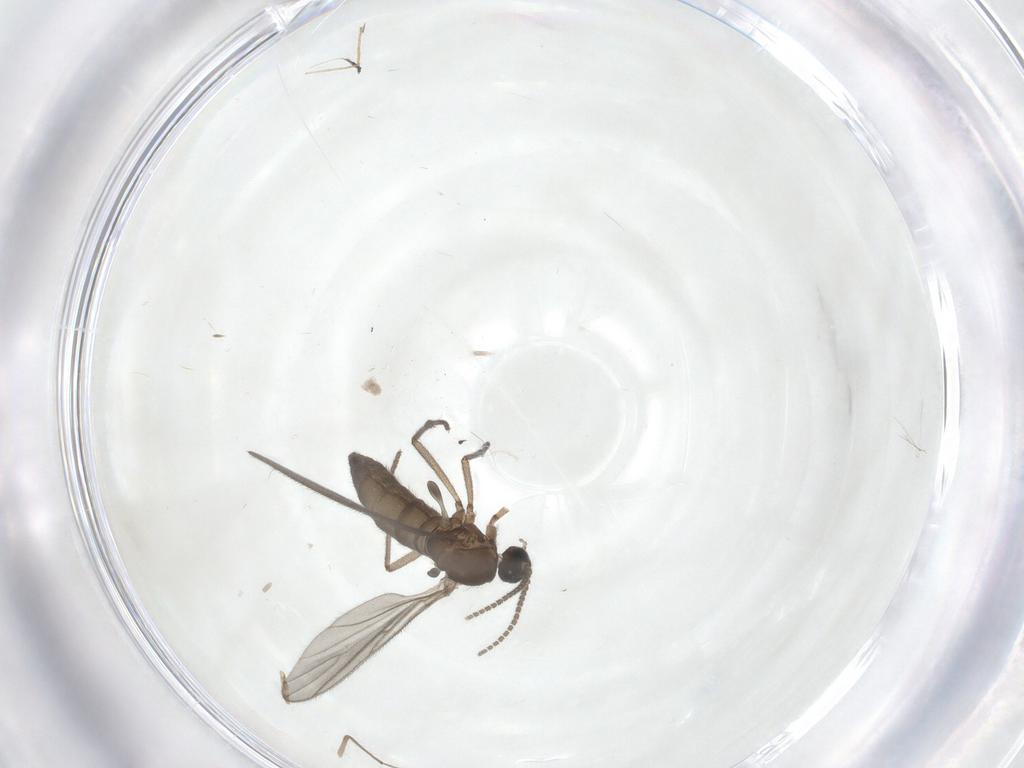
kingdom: Animalia
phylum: Arthropoda
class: Insecta
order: Diptera
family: Sciaridae
